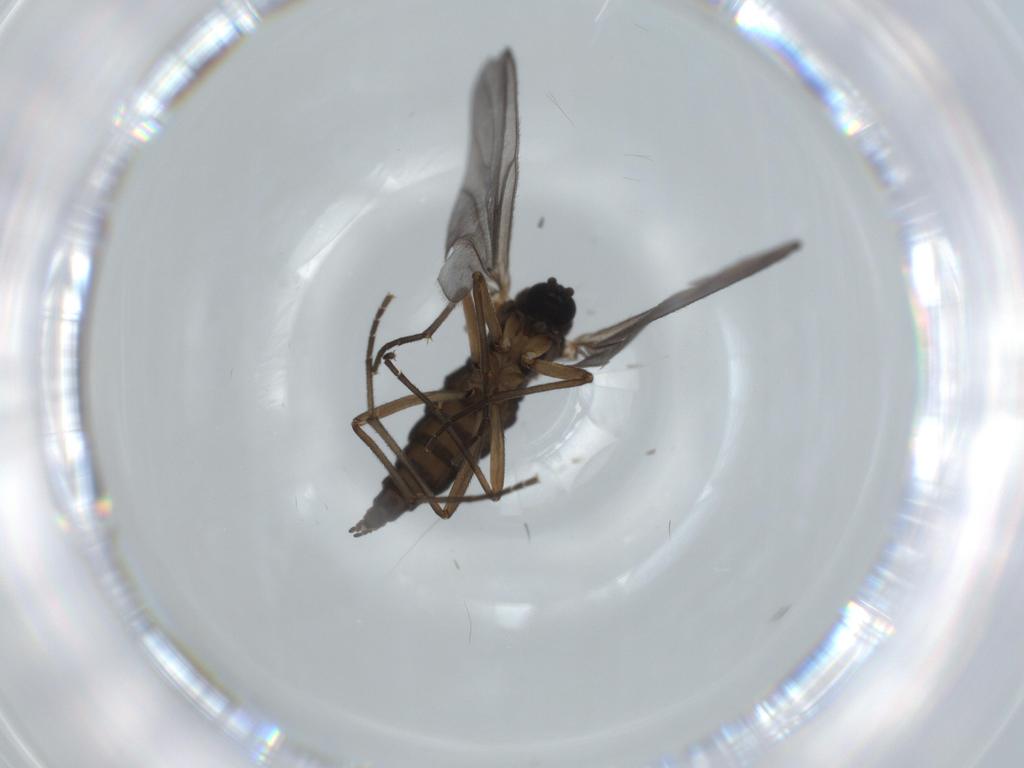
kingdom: Animalia
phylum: Arthropoda
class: Insecta
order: Diptera
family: Sciaridae
